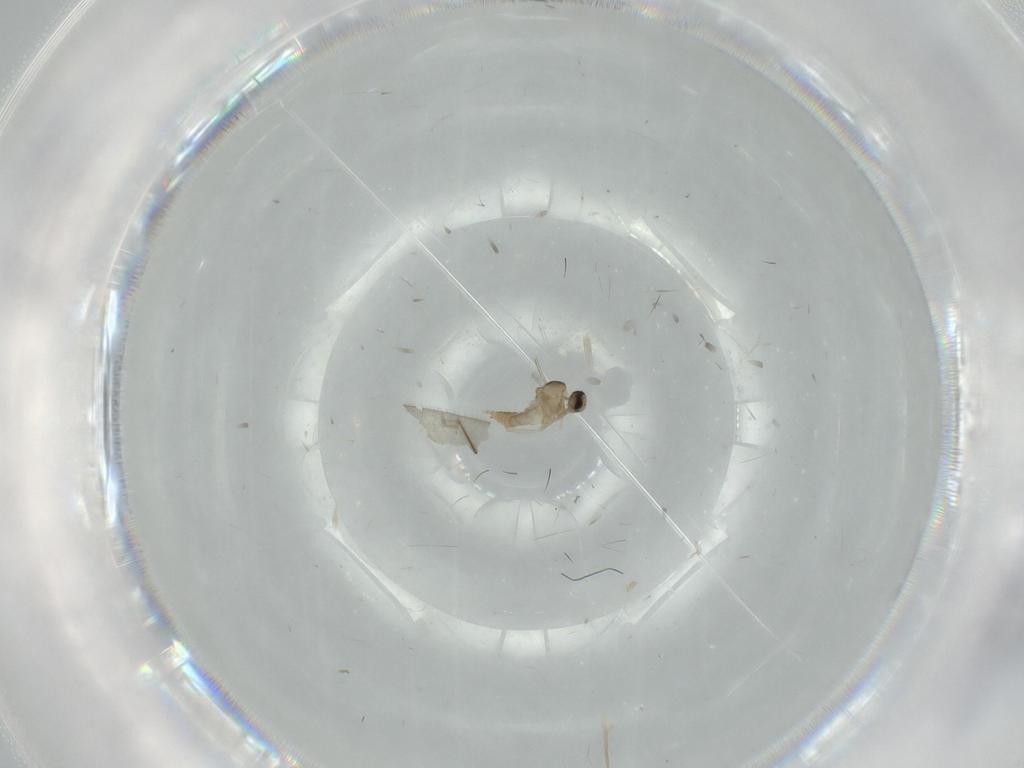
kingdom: Animalia
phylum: Arthropoda
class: Insecta
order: Diptera
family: Cecidomyiidae
